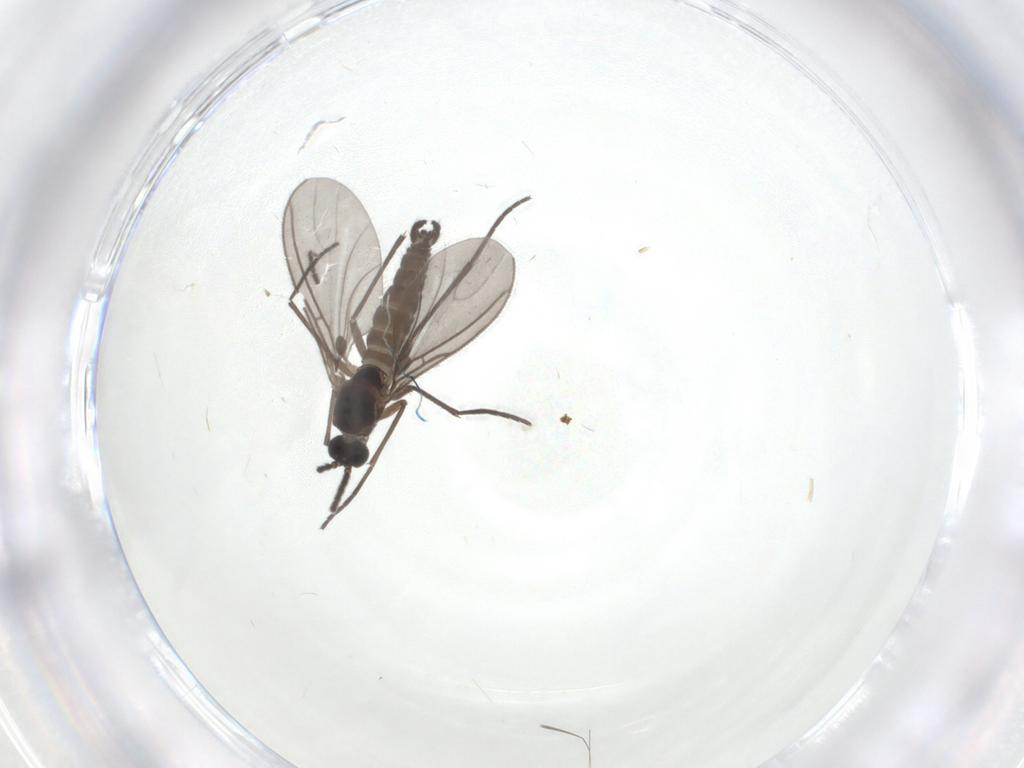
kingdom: Animalia
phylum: Arthropoda
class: Insecta
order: Diptera
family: Sciaridae
